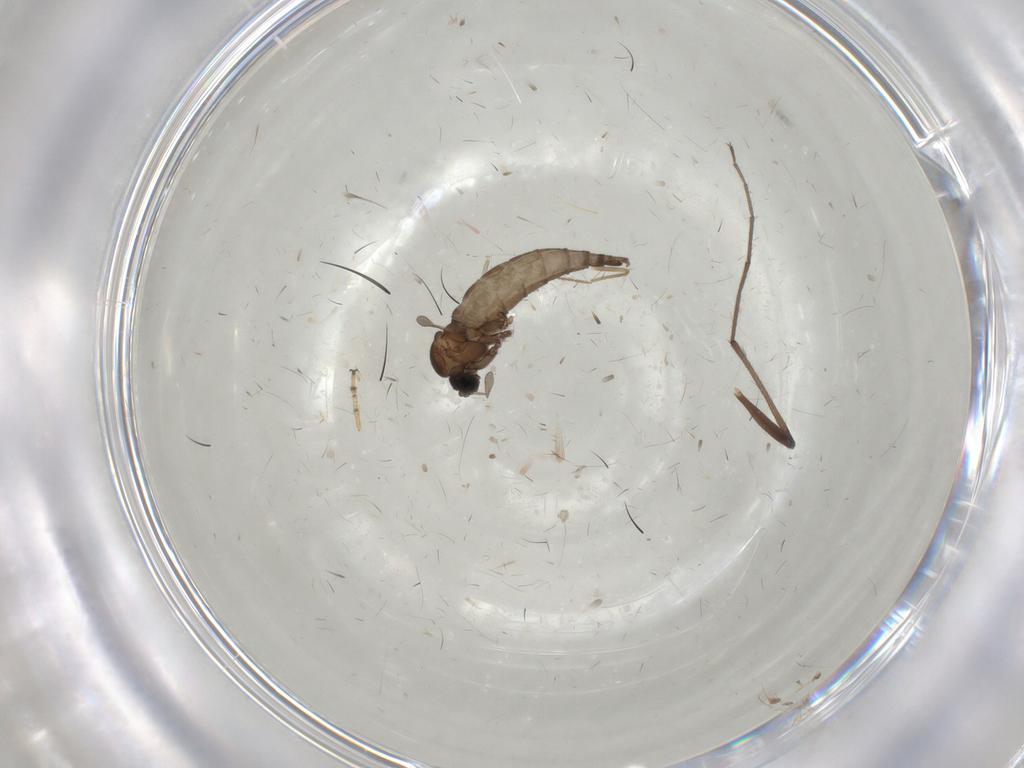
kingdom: Animalia
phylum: Arthropoda
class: Insecta
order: Diptera
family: Sciaridae
